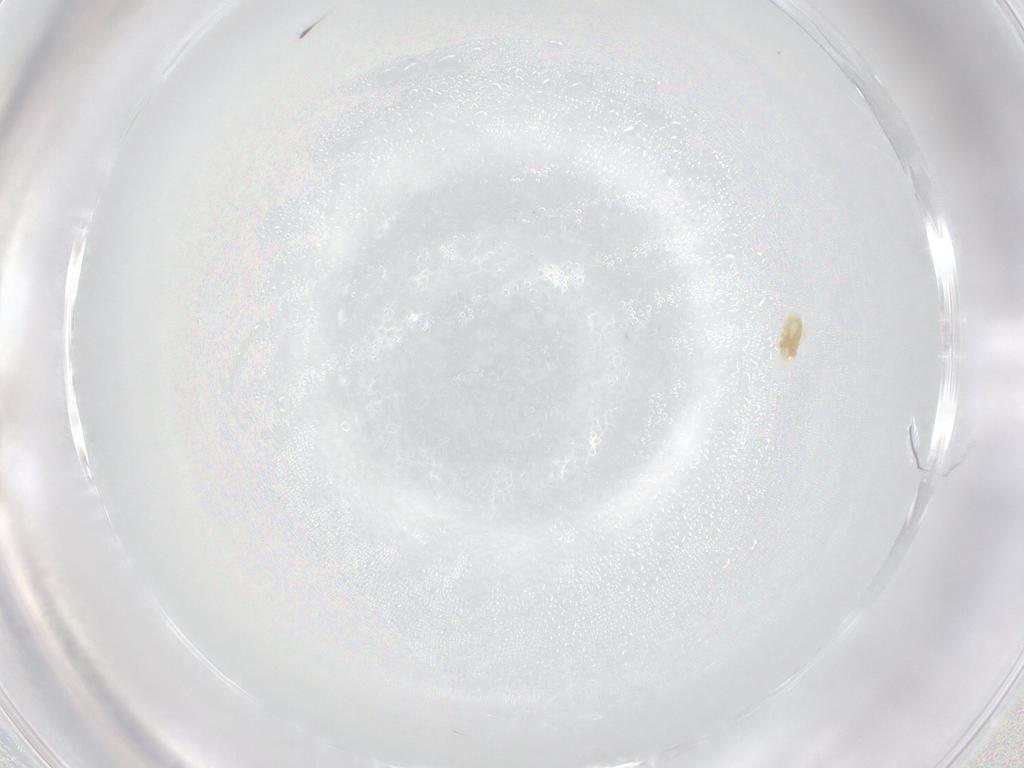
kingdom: Animalia
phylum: Arthropoda
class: Arachnida
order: Trombidiformes
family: Eupodidae
